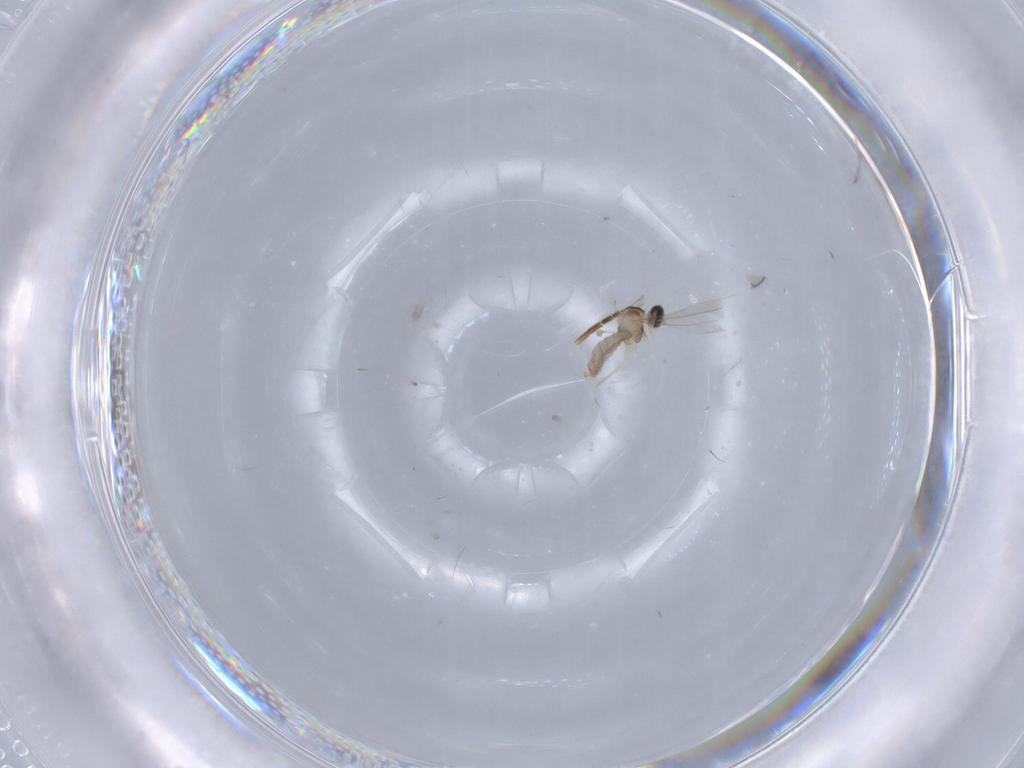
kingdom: Animalia
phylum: Arthropoda
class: Insecta
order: Diptera
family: Cecidomyiidae
